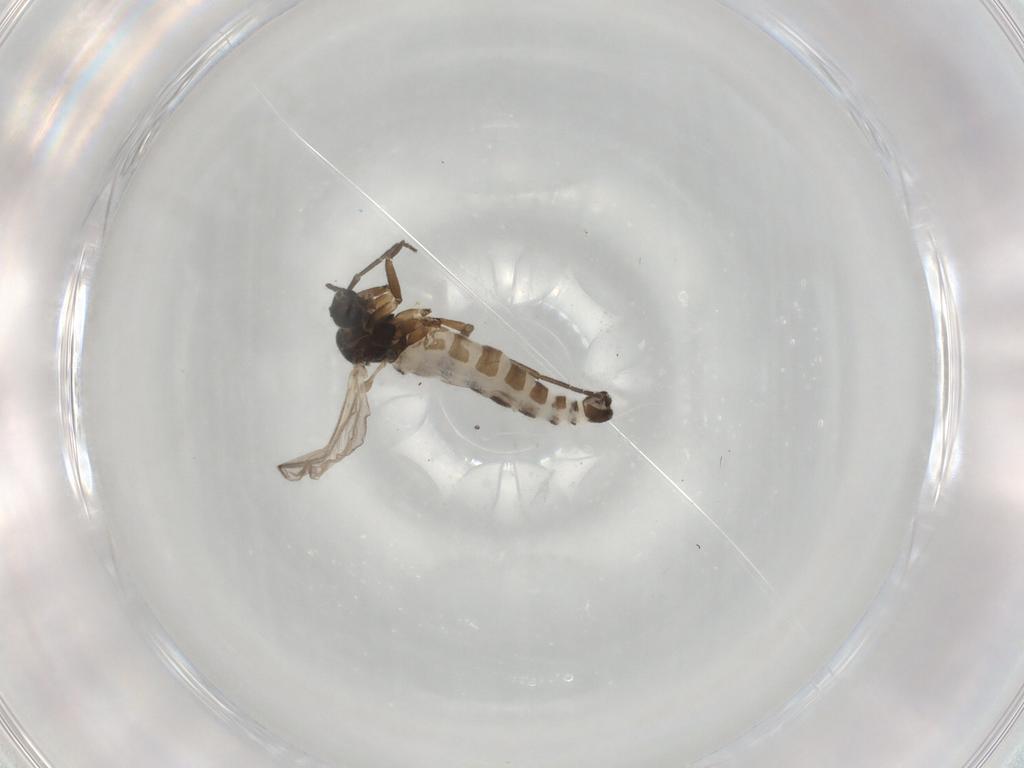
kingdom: Animalia
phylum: Arthropoda
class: Insecta
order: Diptera
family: Sciaridae
